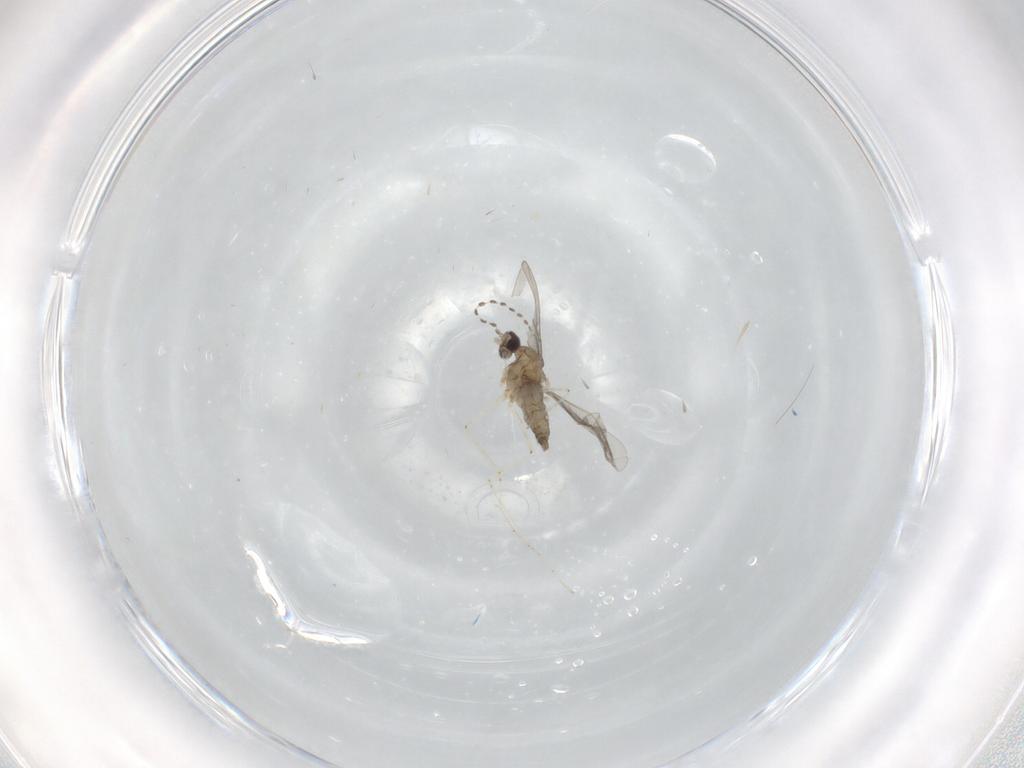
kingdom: Animalia
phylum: Arthropoda
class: Insecta
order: Diptera
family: Cecidomyiidae
